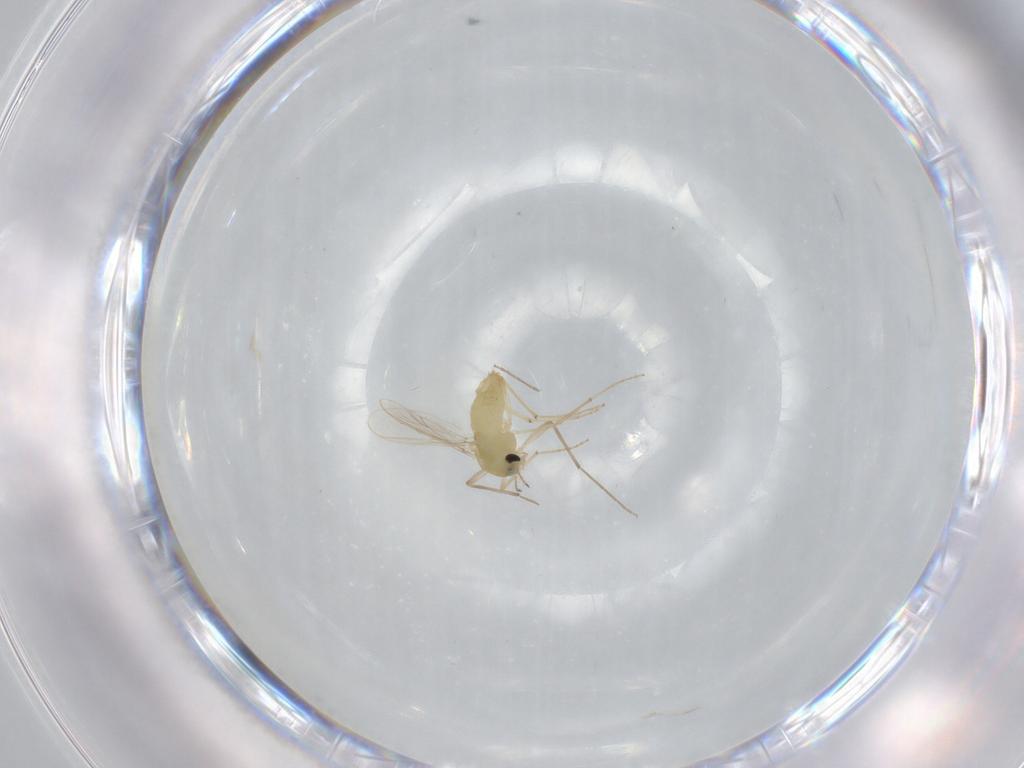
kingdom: Animalia
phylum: Arthropoda
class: Insecta
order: Diptera
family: Chironomidae
